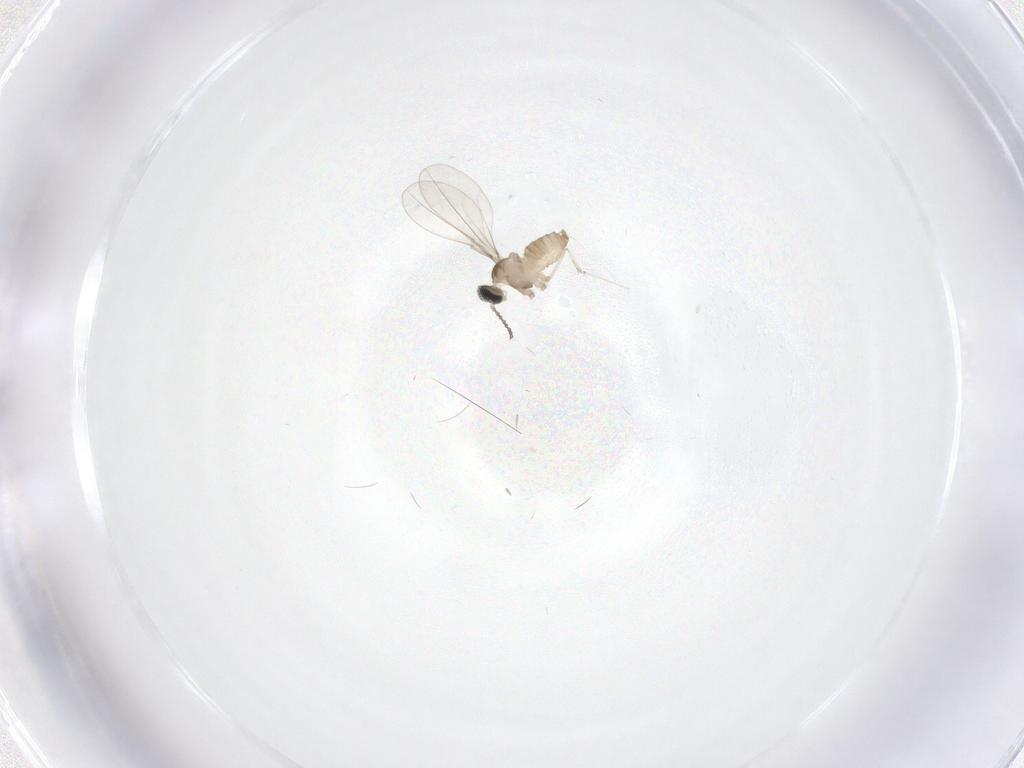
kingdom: Animalia
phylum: Arthropoda
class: Insecta
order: Diptera
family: Cecidomyiidae
